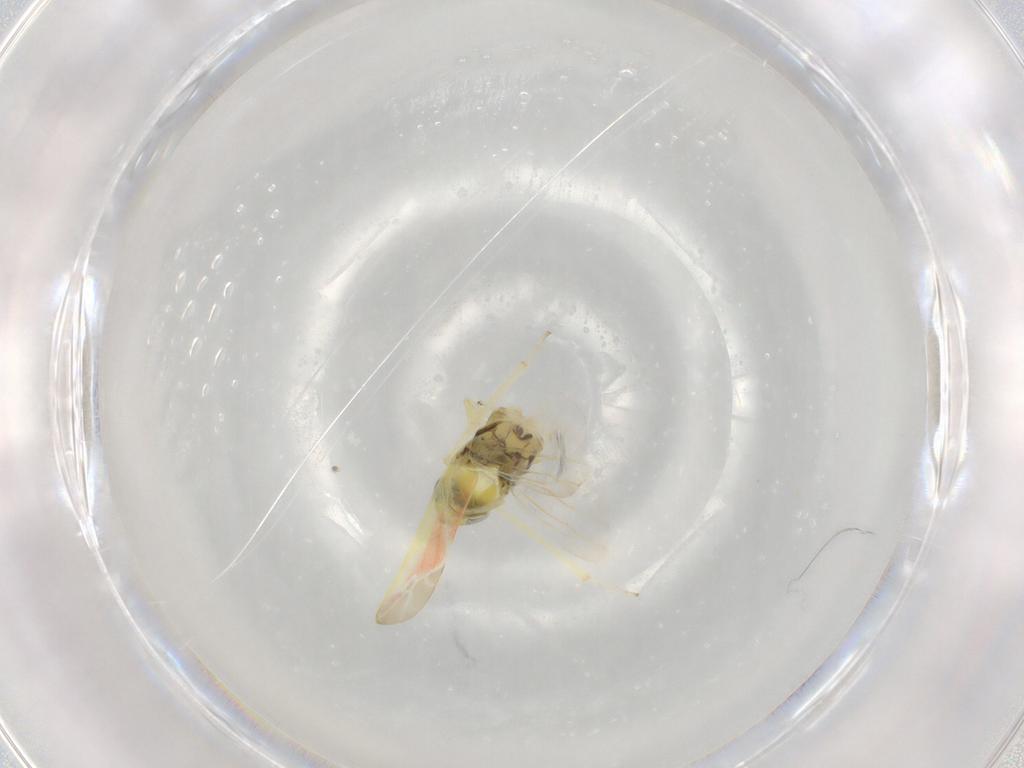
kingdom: Animalia
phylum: Arthropoda
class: Insecta
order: Hemiptera
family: Cicadellidae
